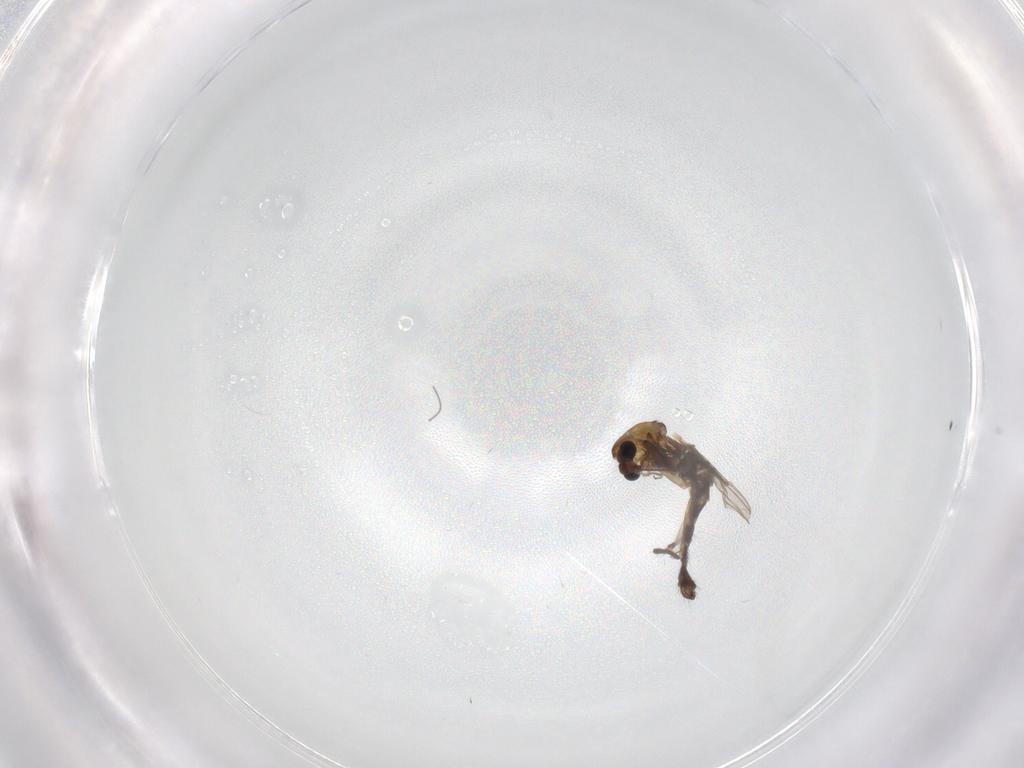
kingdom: Animalia
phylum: Arthropoda
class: Insecta
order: Diptera
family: Chironomidae
